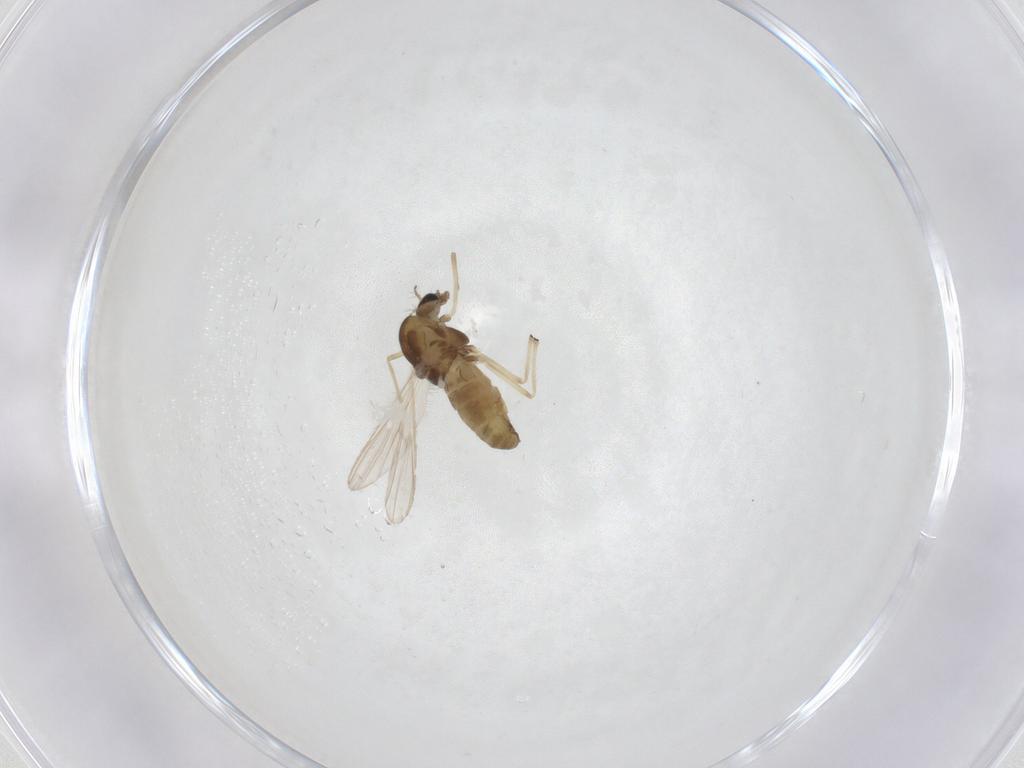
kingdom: Animalia
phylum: Arthropoda
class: Insecta
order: Diptera
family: Chironomidae
